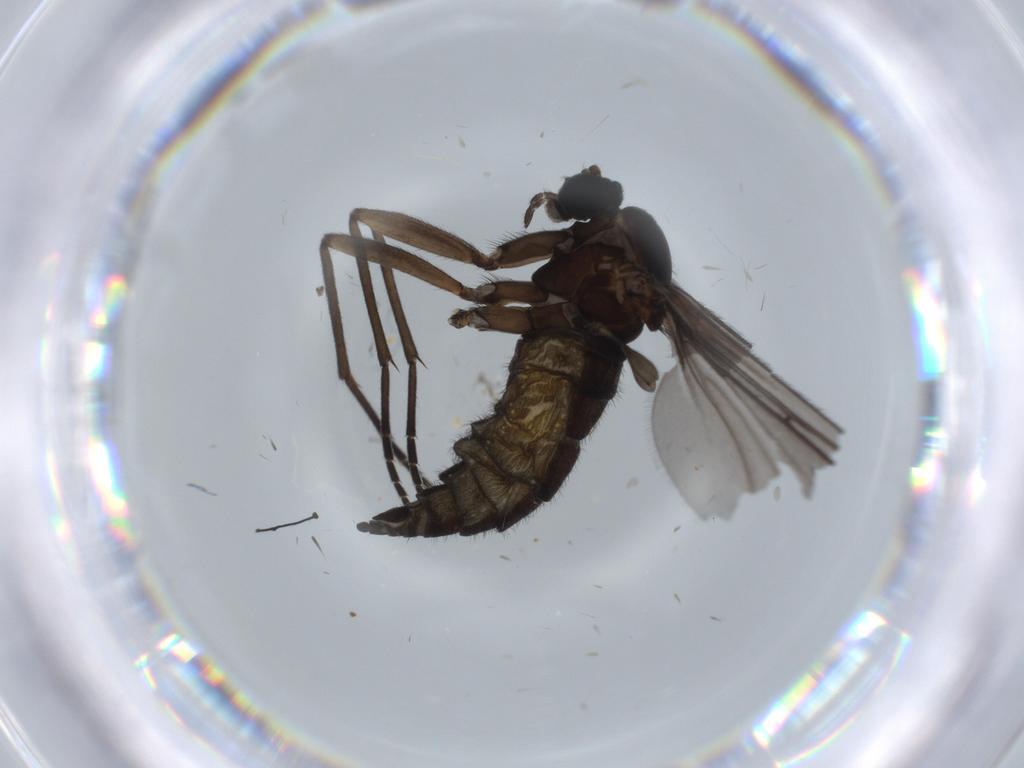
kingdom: Animalia
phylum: Arthropoda
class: Insecta
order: Diptera
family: Sciaridae
